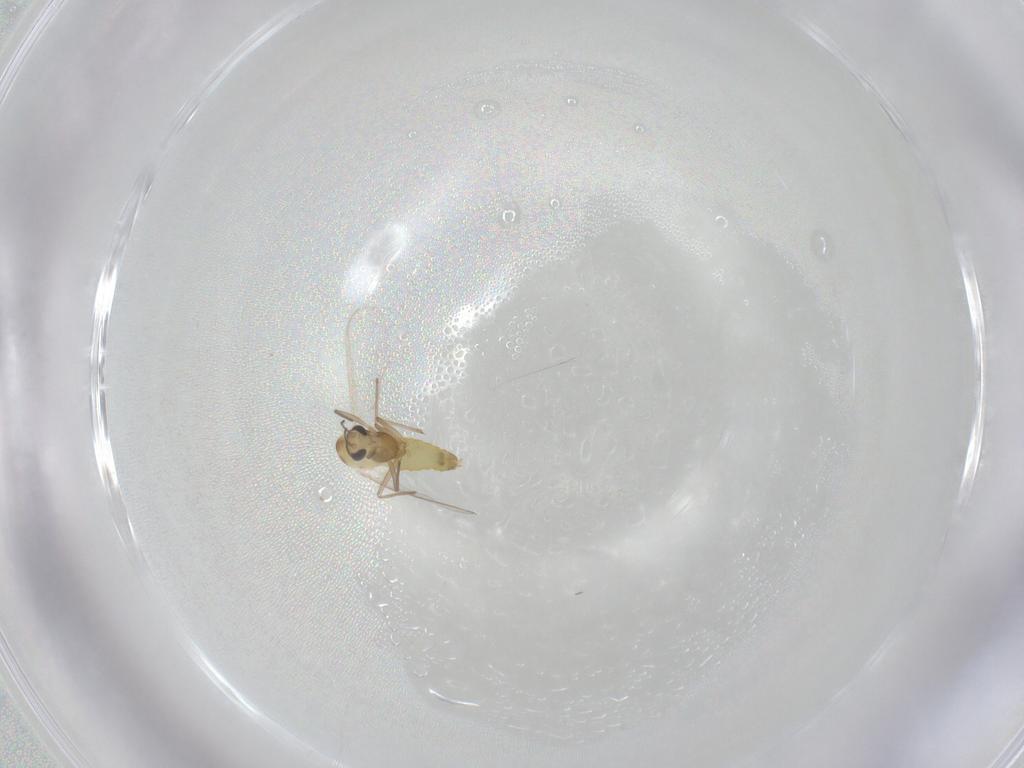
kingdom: Animalia
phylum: Arthropoda
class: Insecta
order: Diptera
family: Chironomidae
